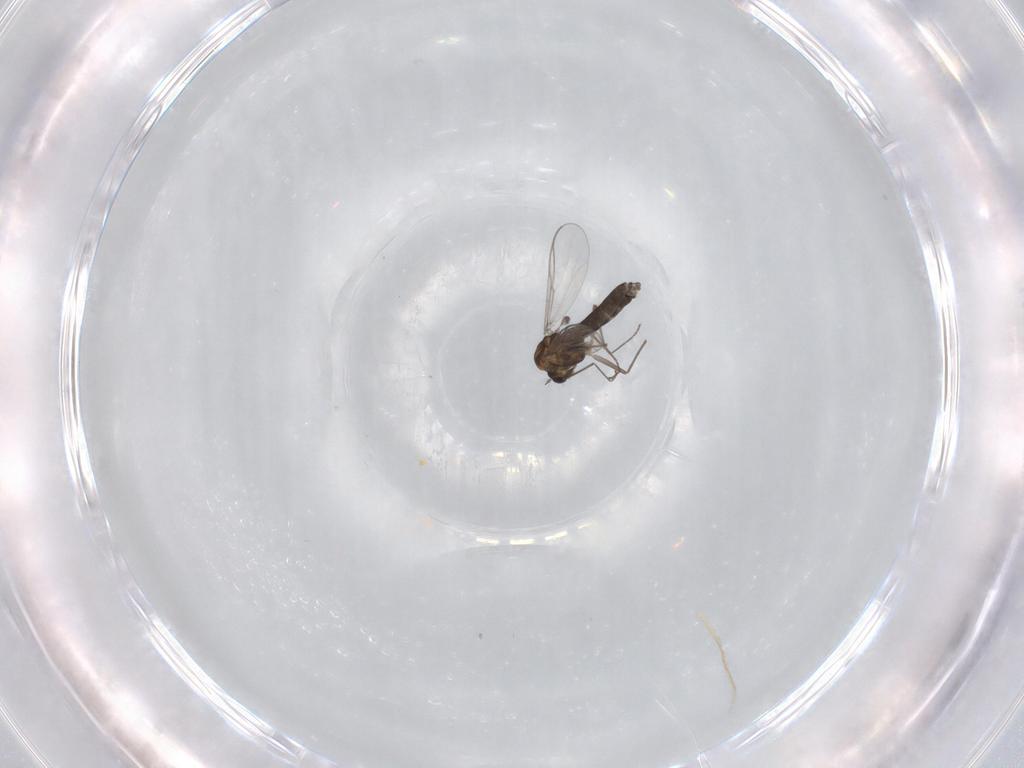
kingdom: Animalia
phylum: Arthropoda
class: Insecta
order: Diptera
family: Chironomidae
